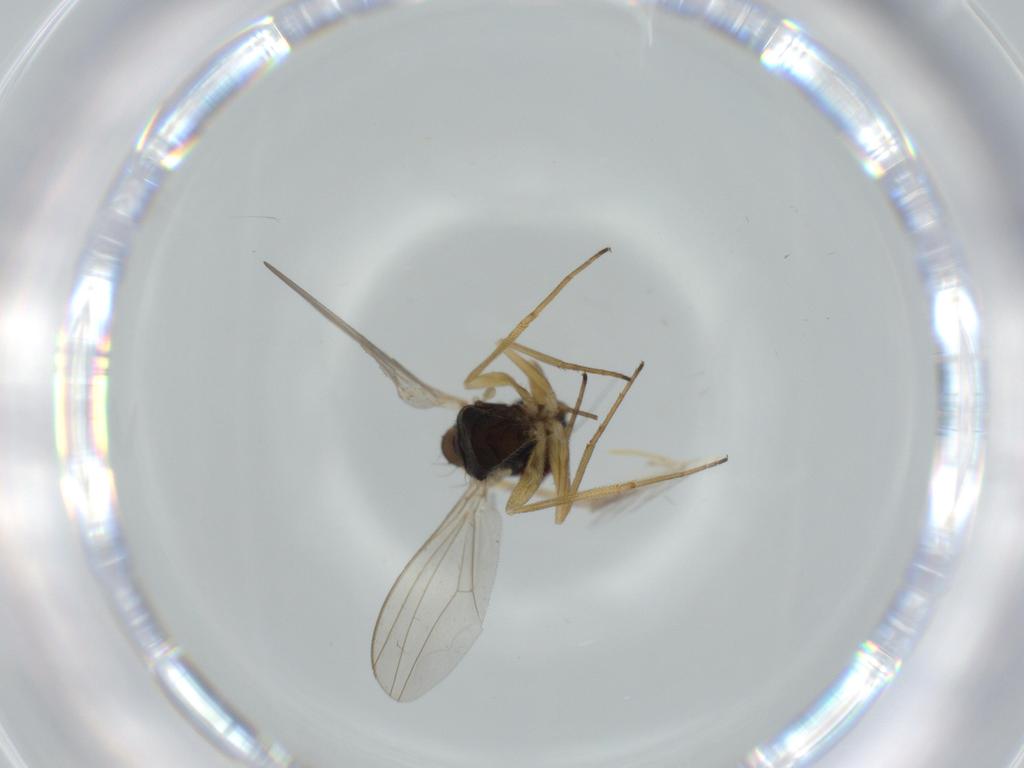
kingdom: Animalia
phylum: Arthropoda
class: Insecta
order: Diptera
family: Dolichopodidae
